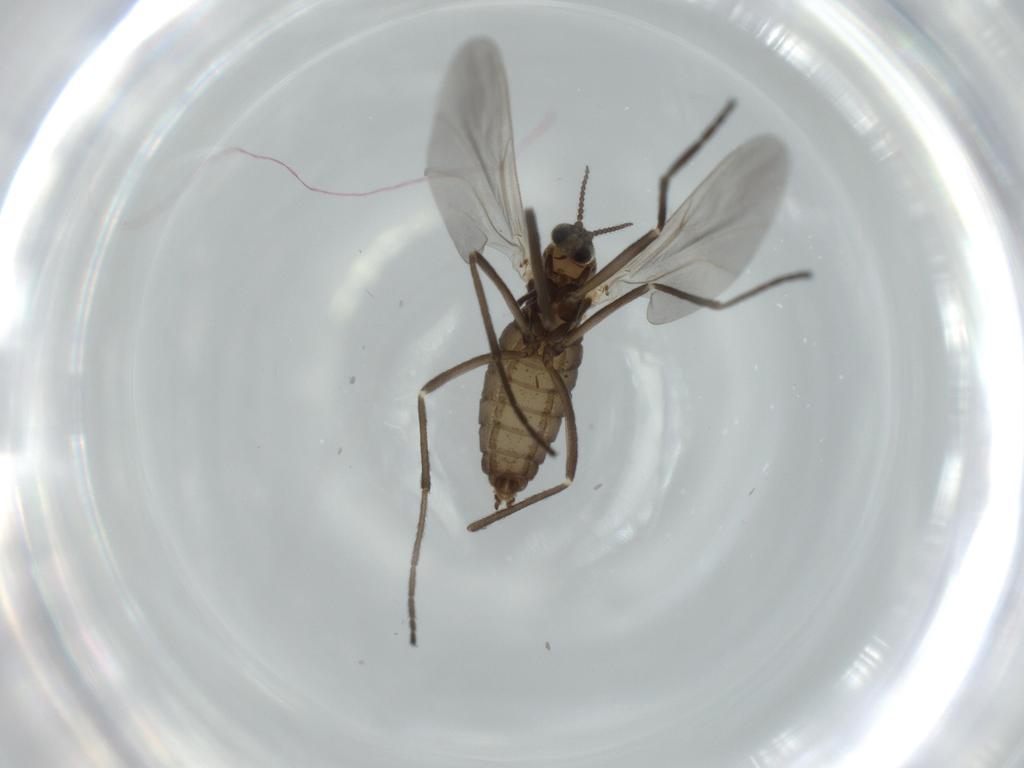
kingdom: Animalia
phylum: Arthropoda
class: Insecta
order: Diptera
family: Cecidomyiidae
